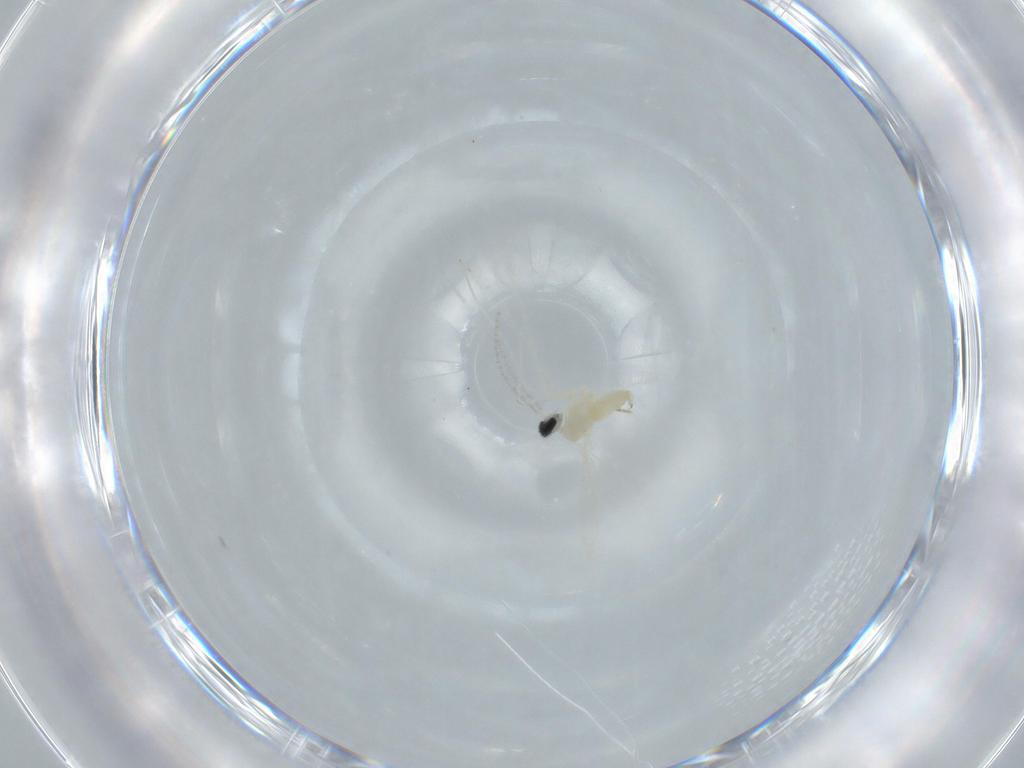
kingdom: Animalia
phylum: Arthropoda
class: Insecta
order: Diptera
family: Cecidomyiidae
